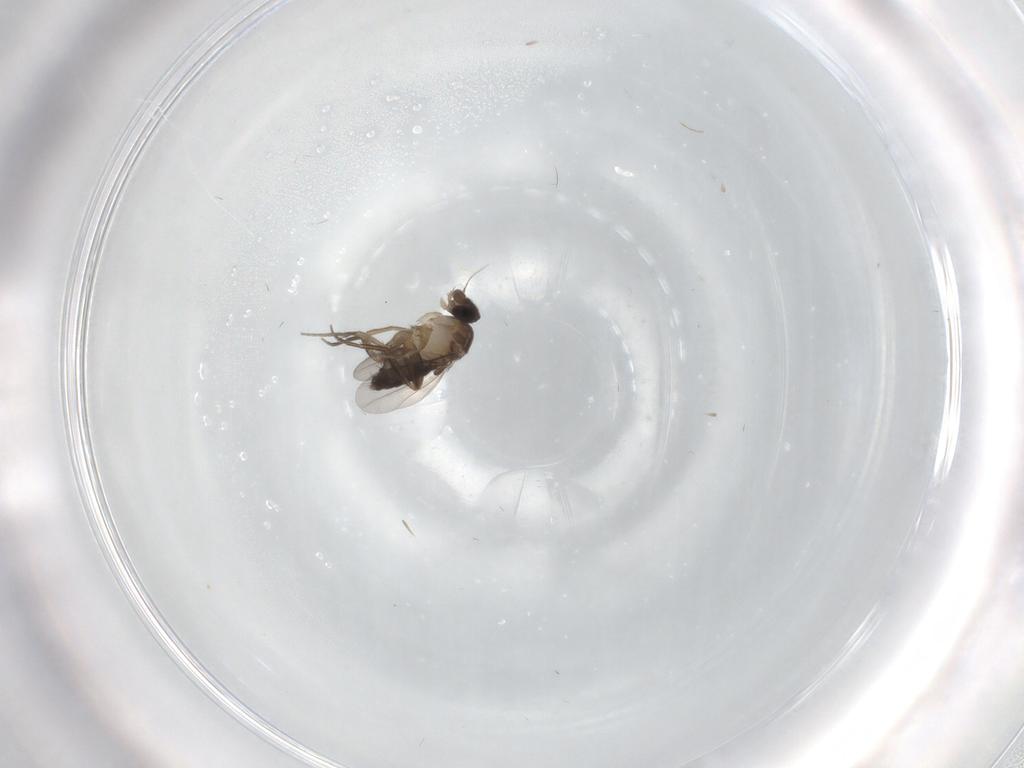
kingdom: Animalia
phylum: Arthropoda
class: Insecta
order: Diptera
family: Phoridae
